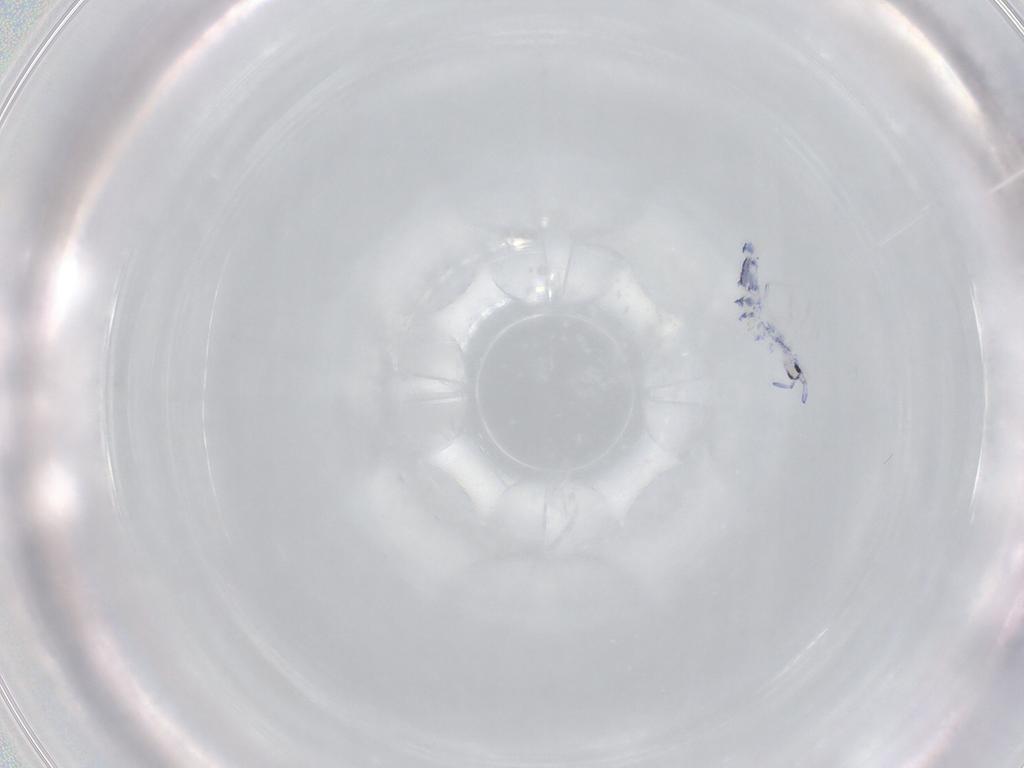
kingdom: Animalia
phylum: Arthropoda
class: Collembola
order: Entomobryomorpha
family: Entomobryidae
